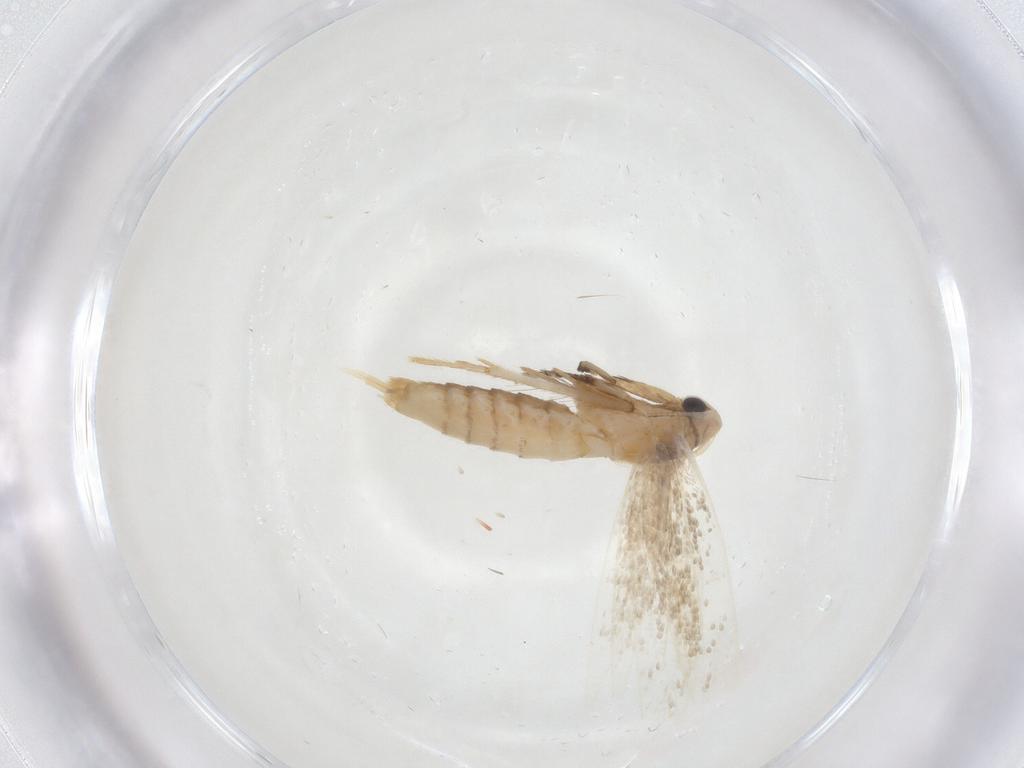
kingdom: Animalia
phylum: Arthropoda
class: Insecta
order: Lepidoptera
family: Tineidae
